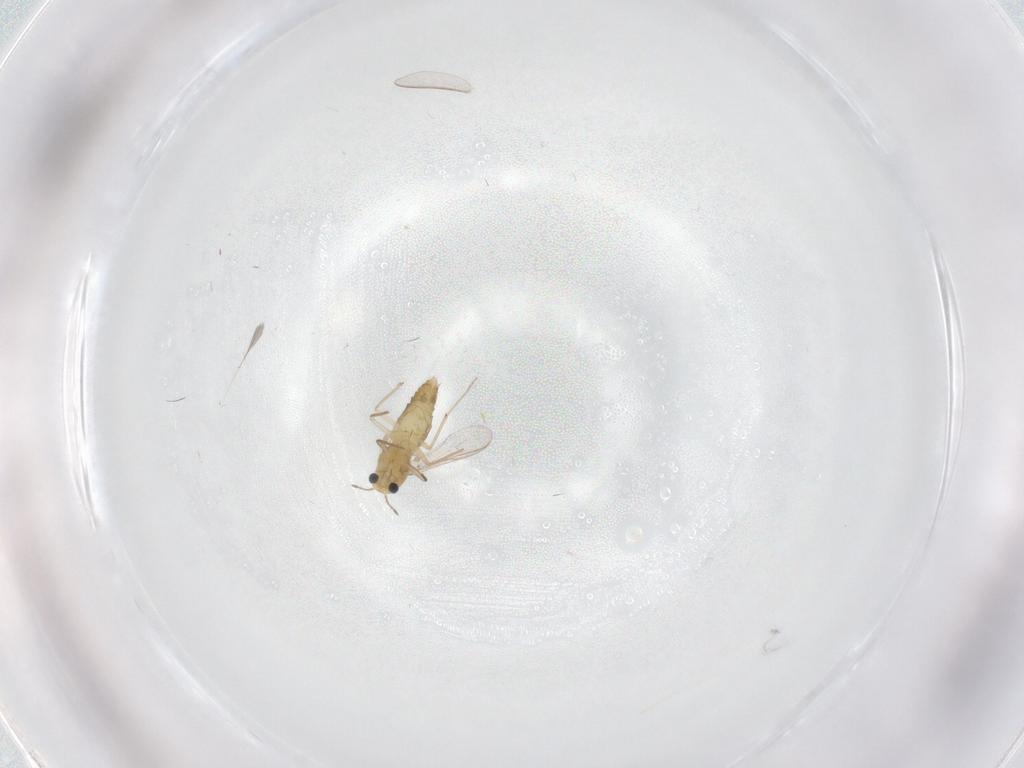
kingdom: Animalia
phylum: Arthropoda
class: Insecta
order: Diptera
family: Chironomidae
